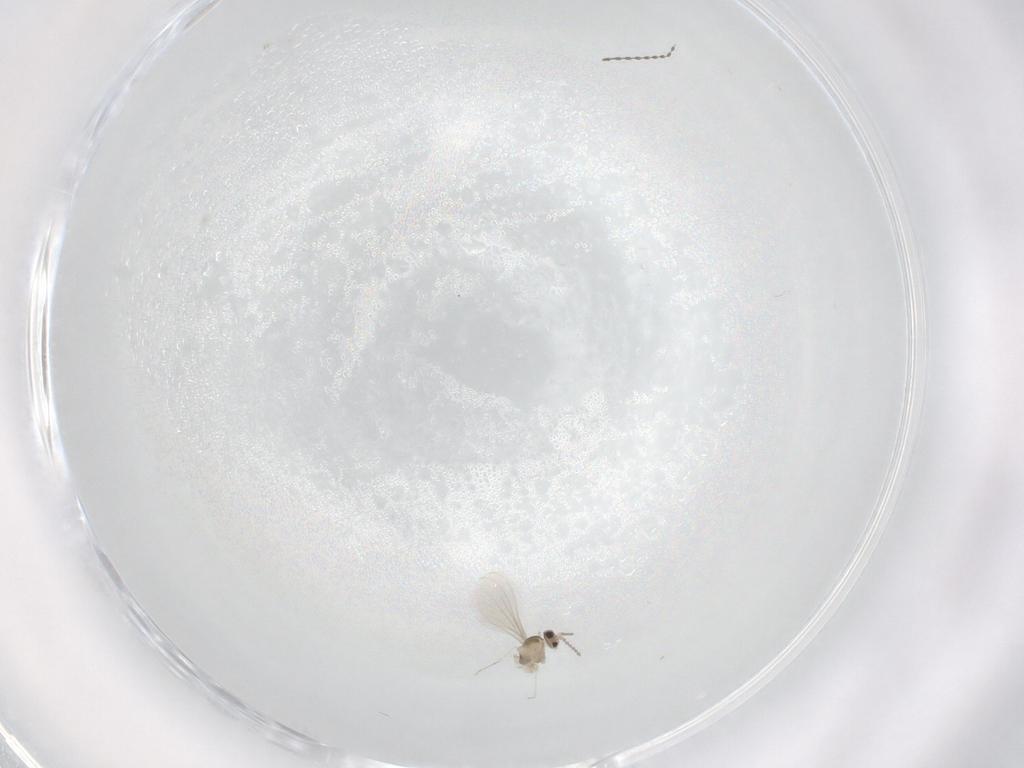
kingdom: Animalia
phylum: Arthropoda
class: Insecta
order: Diptera
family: Cecidomyiidae
